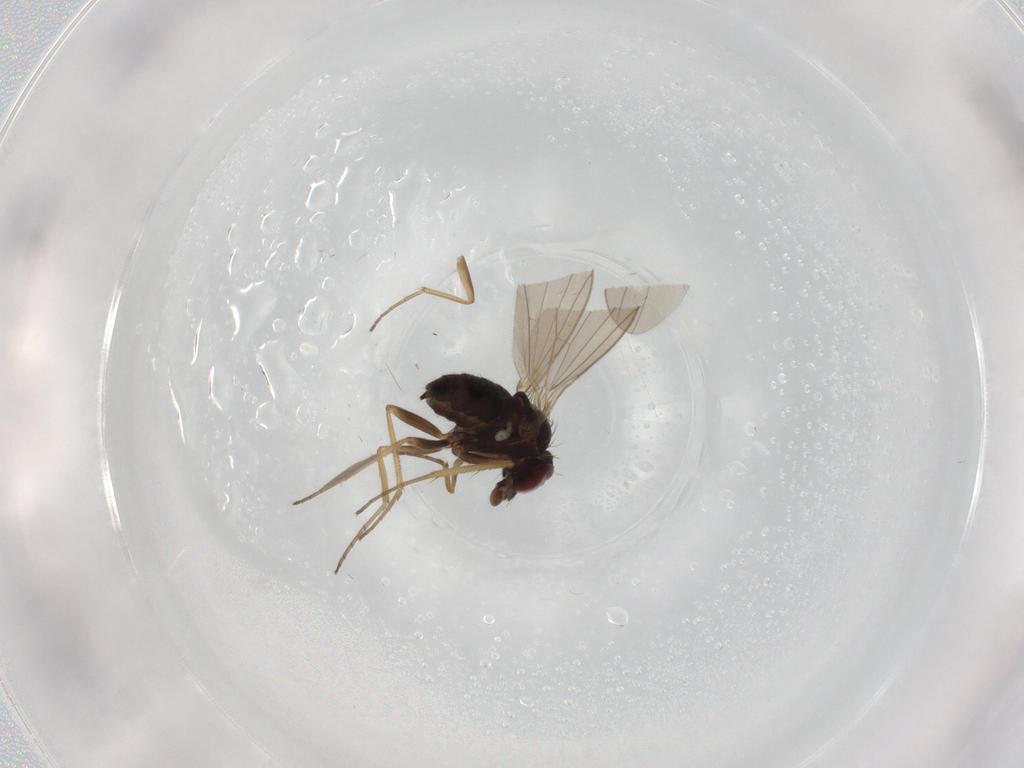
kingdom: Animalia
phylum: Arthropoda
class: Insecta
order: Diptera
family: Dolichopodidae
